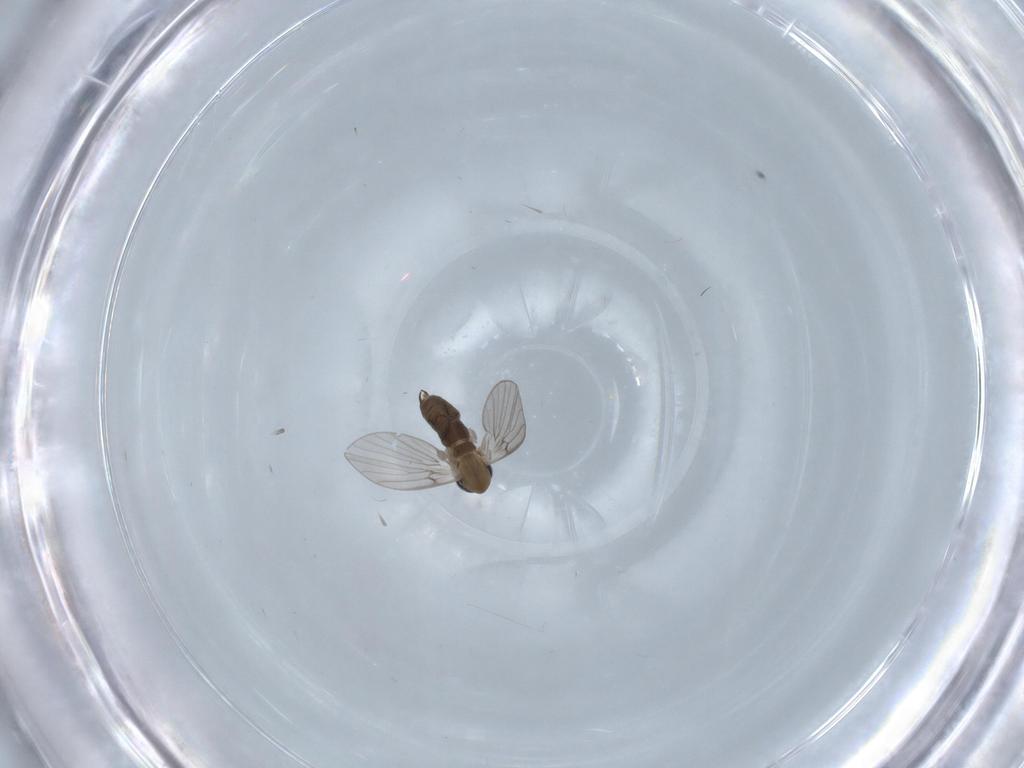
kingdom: Animalia
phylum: Arthropoda
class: Insecta
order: Diptera
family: Psychodidae
